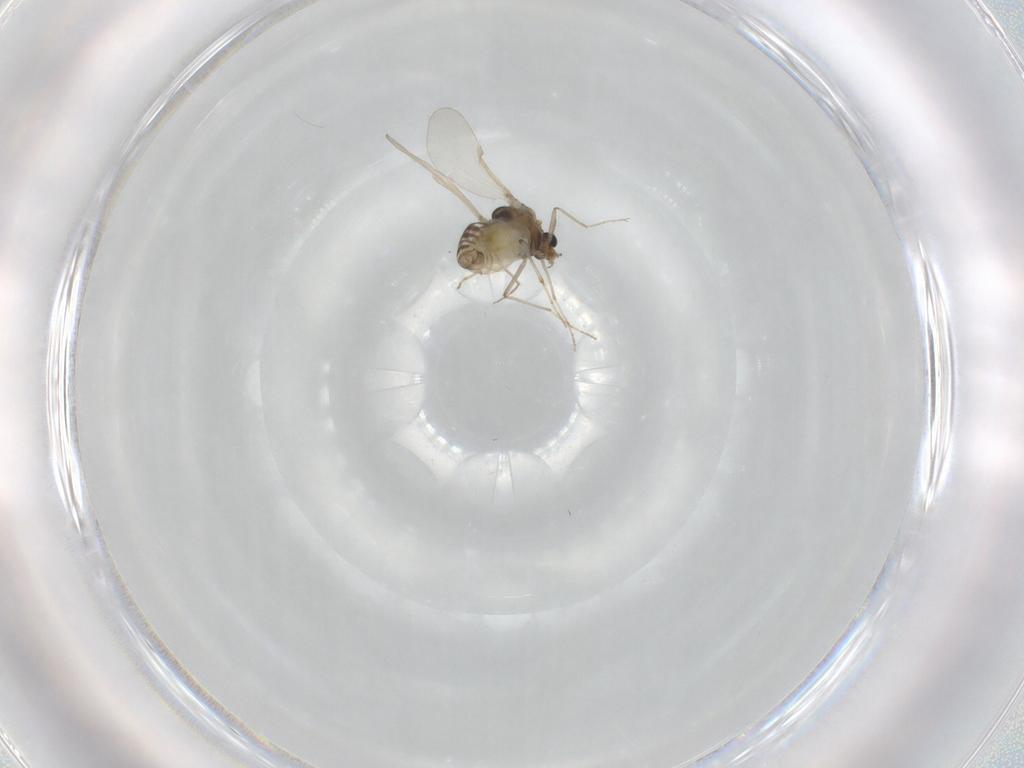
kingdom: Animalia
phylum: Arthropoda
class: Insecta
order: Diptera
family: Chironomidae
